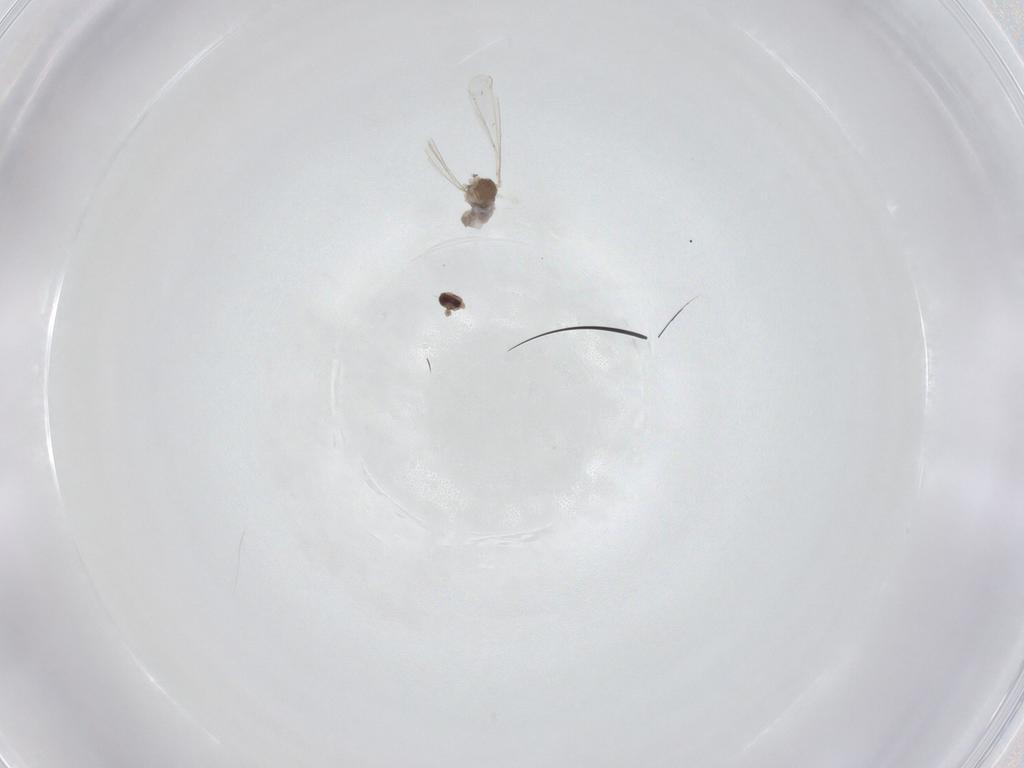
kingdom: Animalia
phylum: Arthropoda
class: Insecta
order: Diptera
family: Cecidomyiidae
